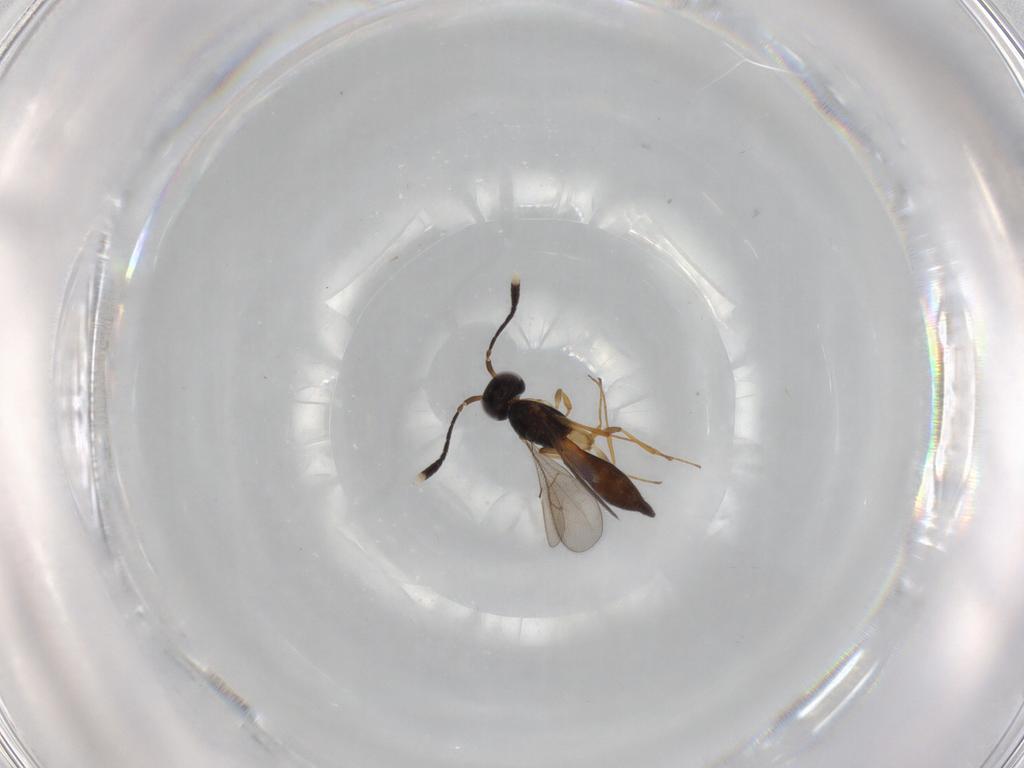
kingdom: Animalia
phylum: Arthropoda
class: Insecta
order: Hymenoptera
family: Scelionidae
